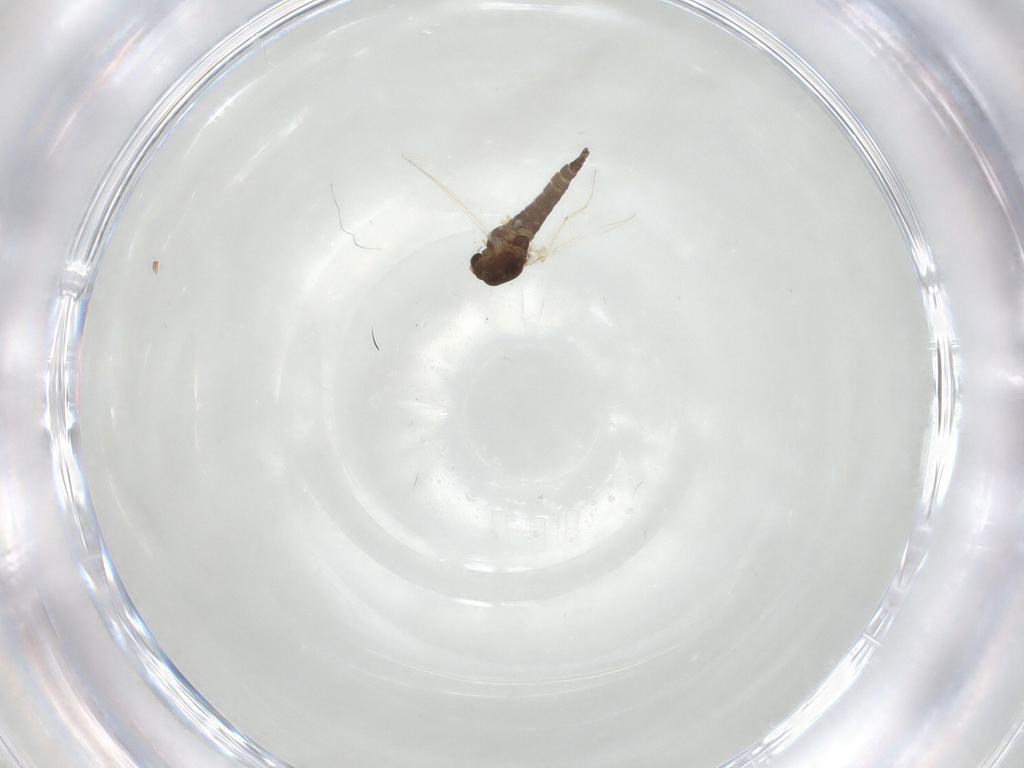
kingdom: Animalia
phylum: Arthropoda
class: Insecta
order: Diptera
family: Chironomidae
